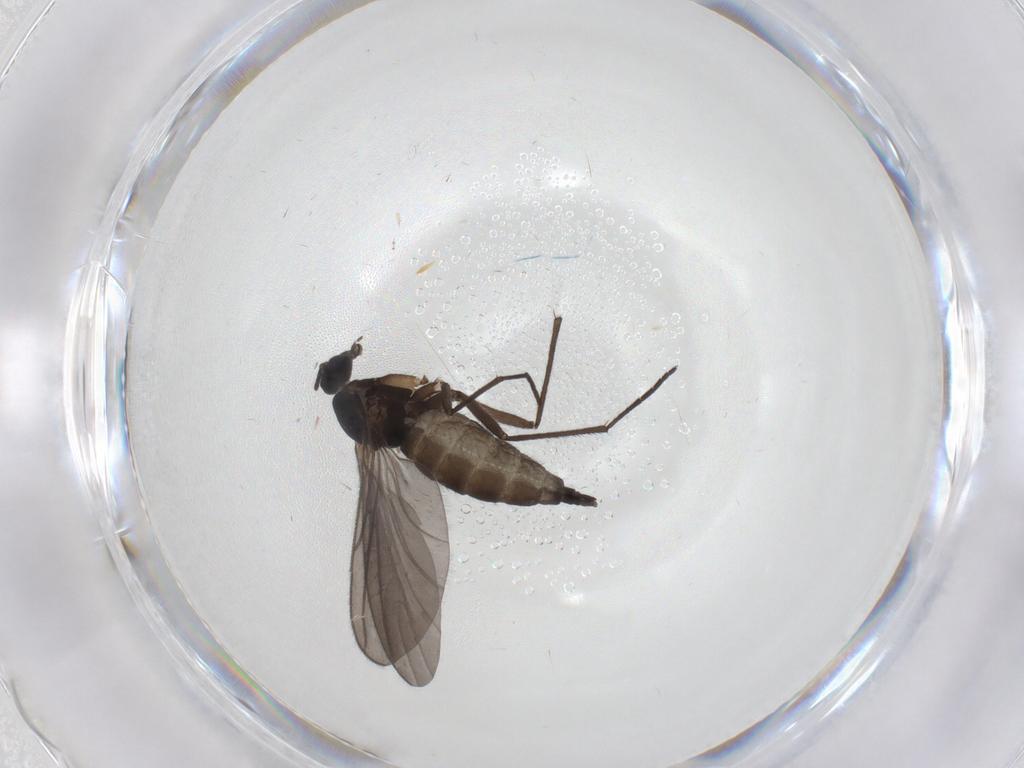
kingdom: Animalia
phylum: Arthropoda
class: Insecta
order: Diptera
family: Sciaridae
